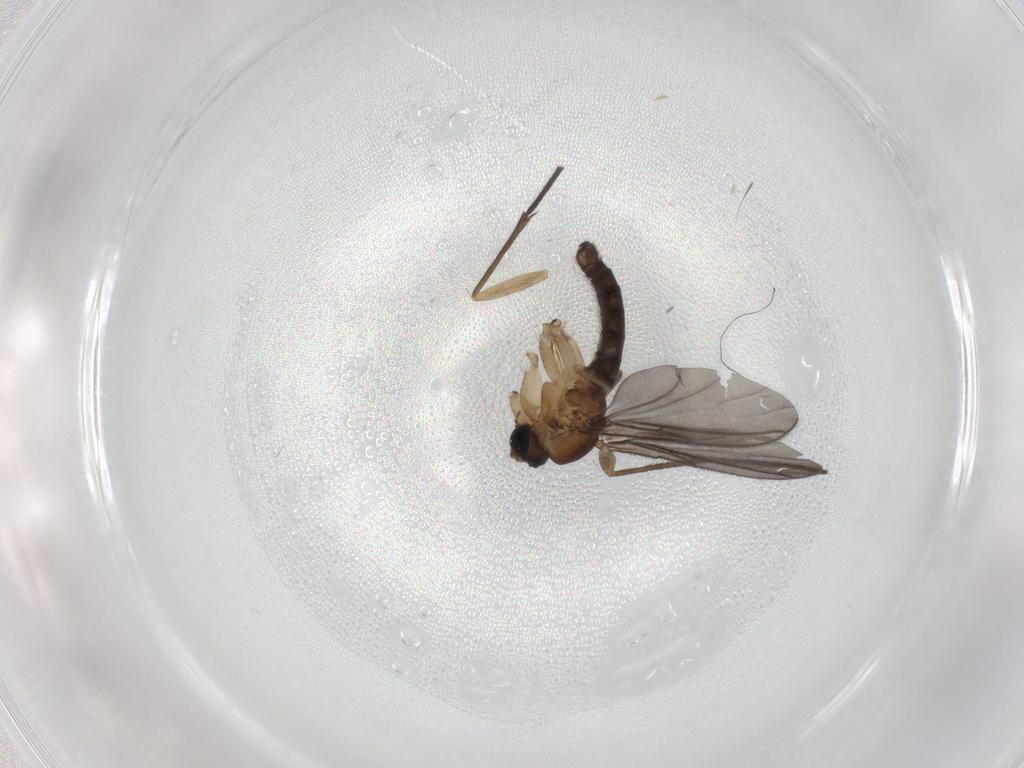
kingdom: Animalia
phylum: Arthropoda
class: Insecta
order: Diptera
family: Sciaridae
